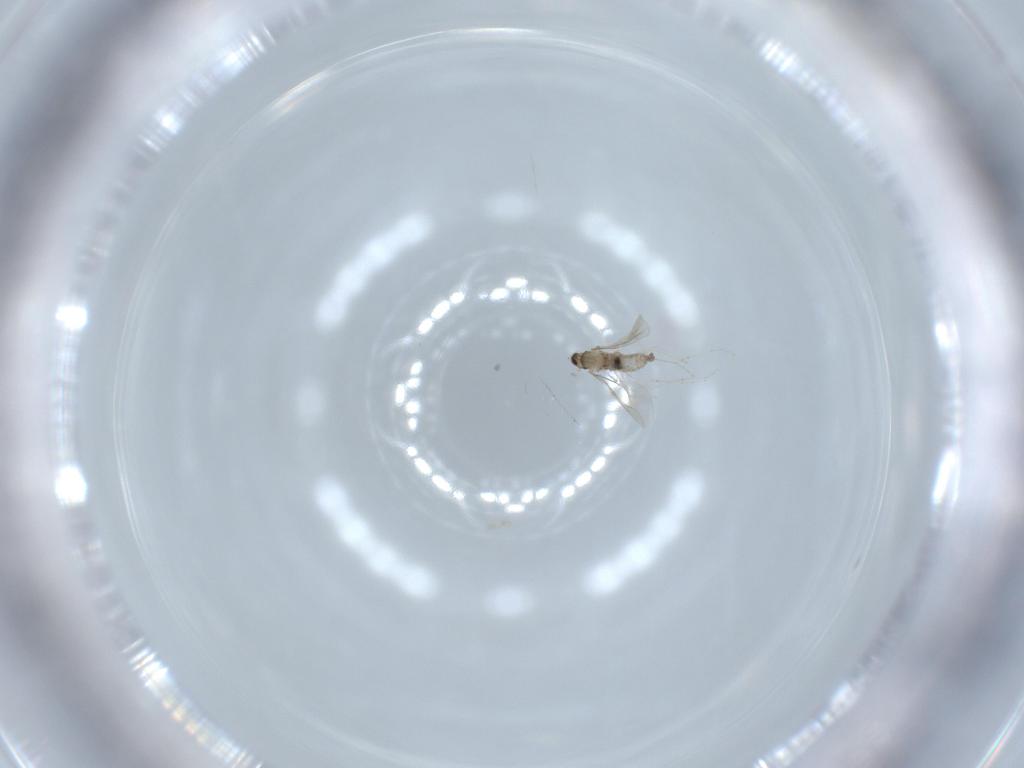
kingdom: Animalia
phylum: Arthropoda
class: Insecta
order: Diptera
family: Cecidomyiidae
